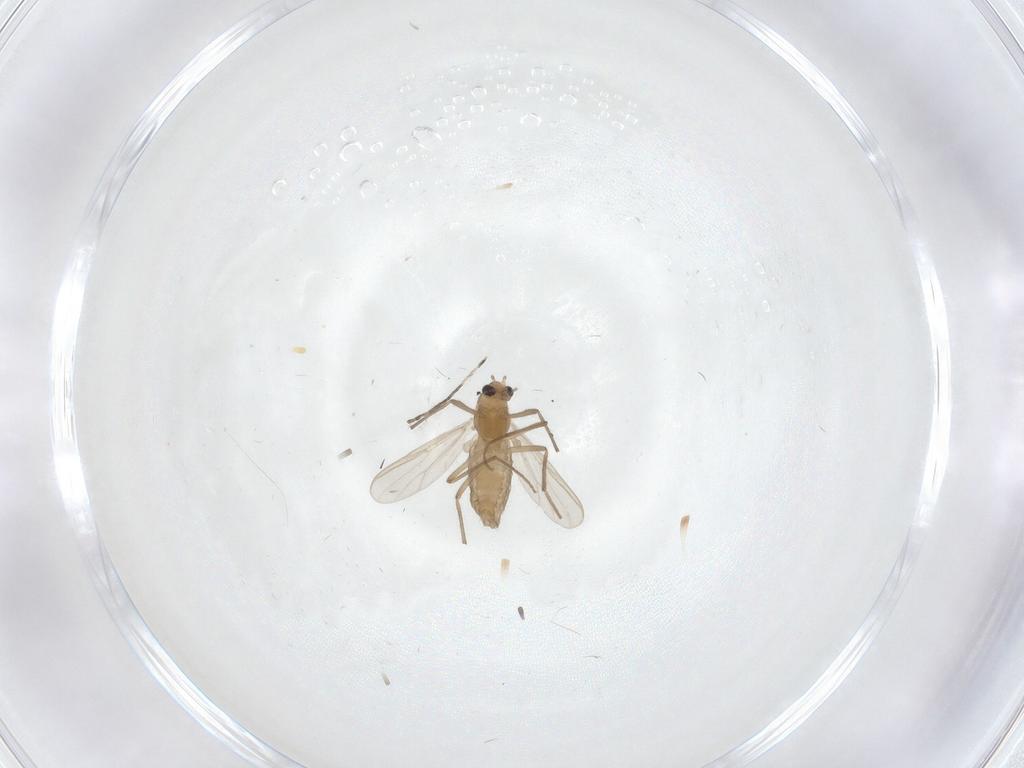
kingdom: Animalia
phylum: Arthropoda
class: Insecta
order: Diptera
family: Chironomidae
